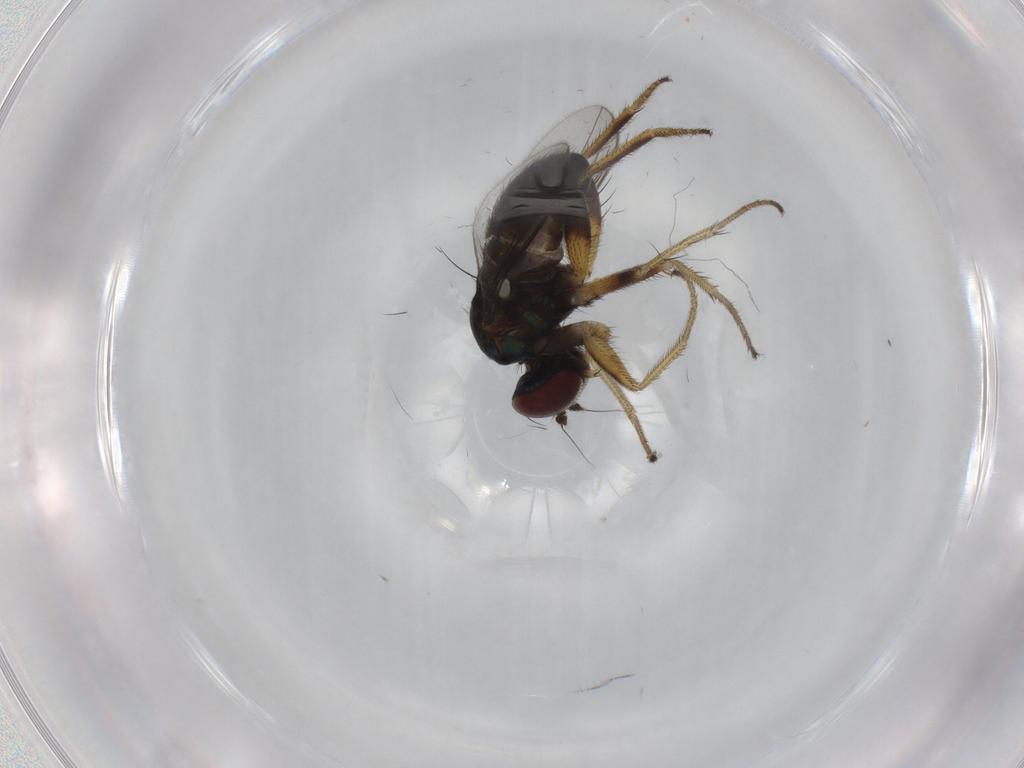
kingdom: Animalia
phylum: Arthropoda
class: Insecta
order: Diptera
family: Dolichopodidae
